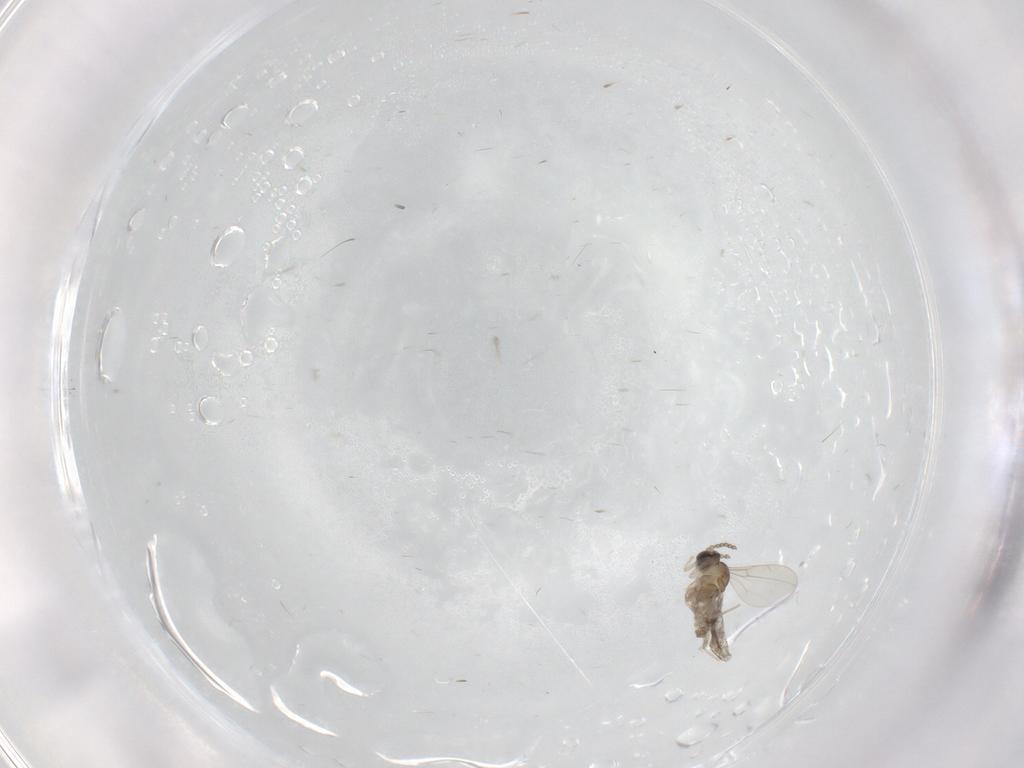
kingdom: Animalia
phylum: Arthropoda
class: Insecta
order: Diptera
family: Cecidomyiidae
